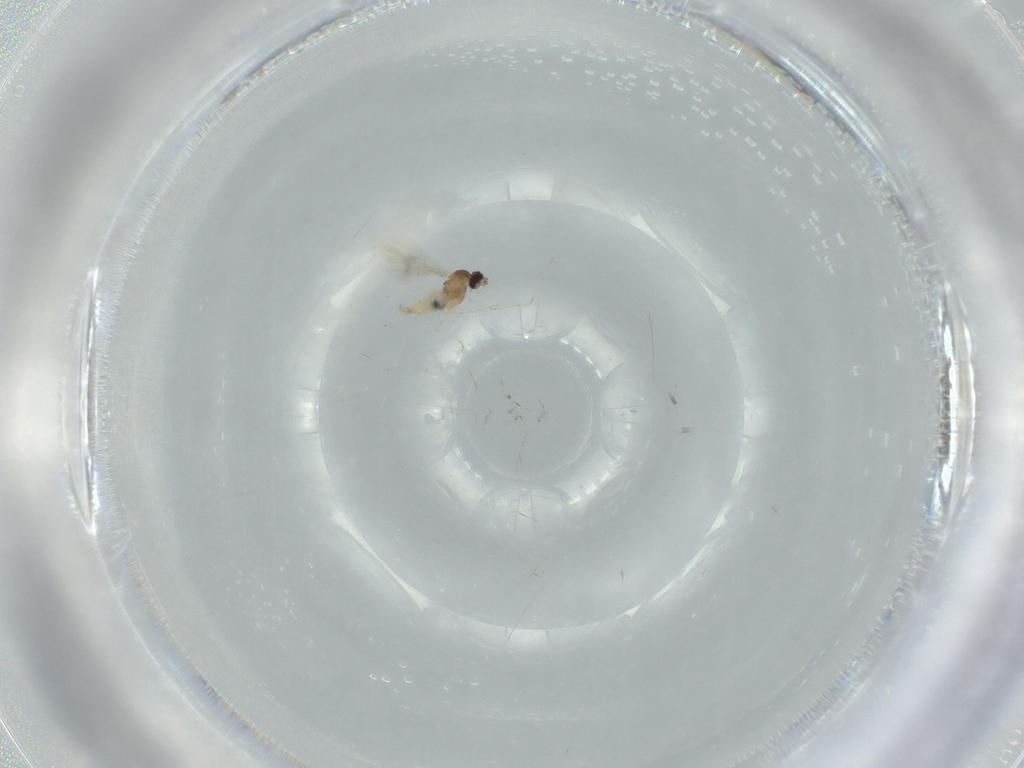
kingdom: Animalia
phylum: Arthropoda
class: Insecta
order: Diptera
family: Cecidomyiidae
